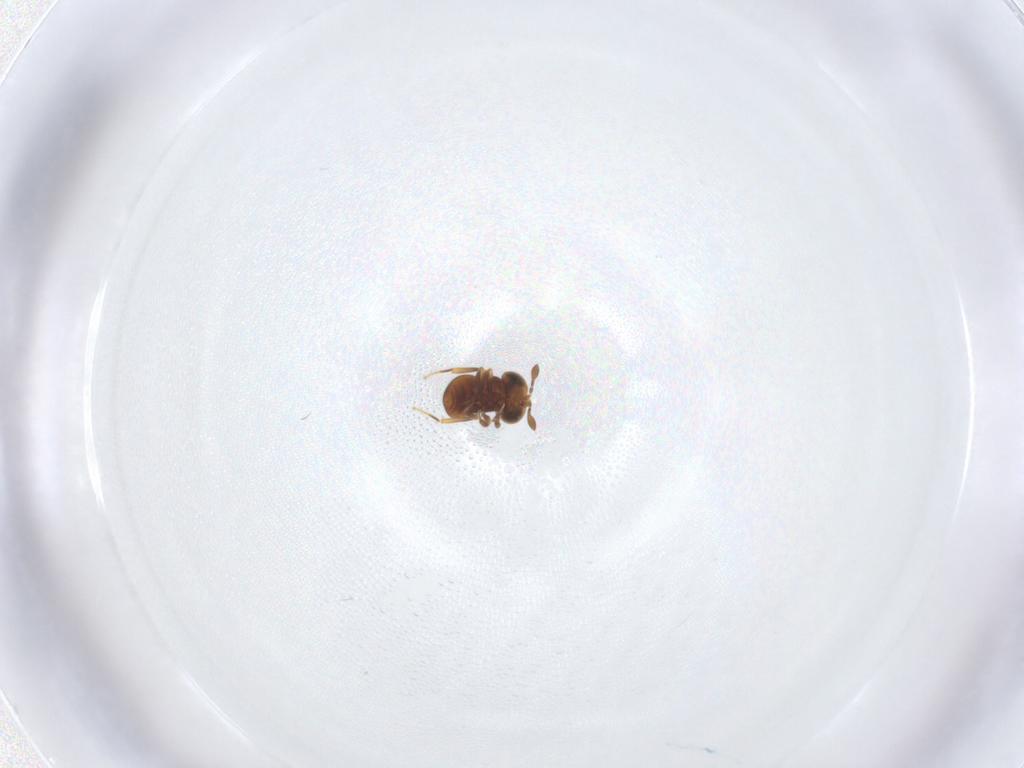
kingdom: Animalia
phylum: Arthropoda
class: Insecta
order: Hymenoptera
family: Scelionidae
